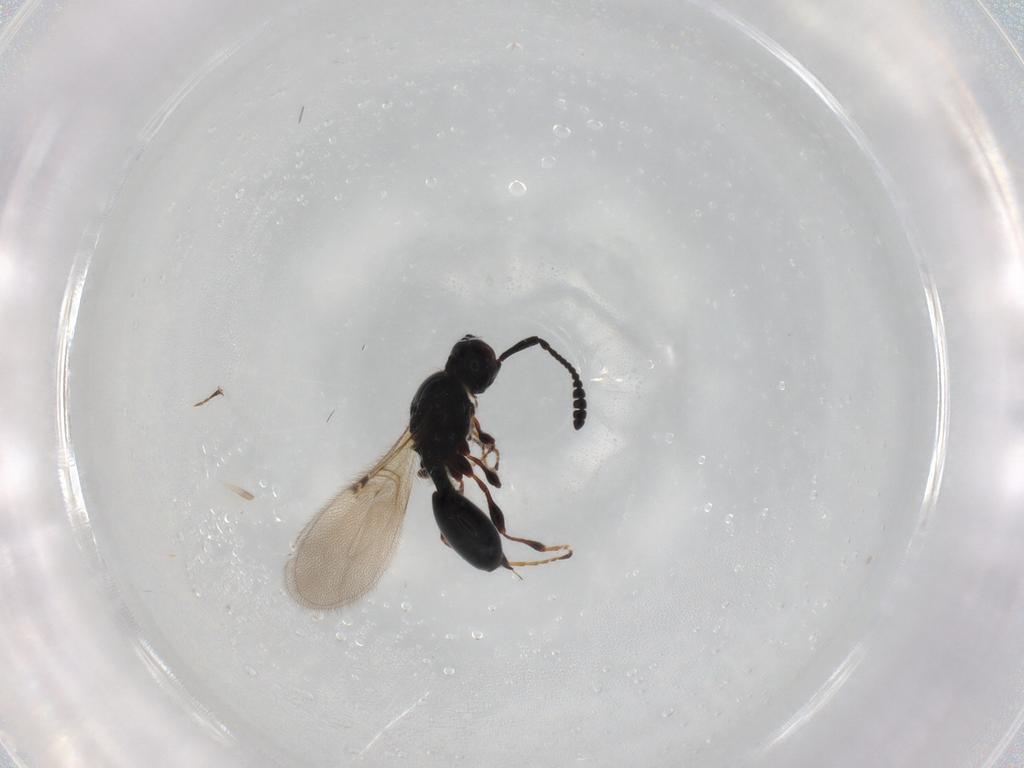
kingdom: Animalia
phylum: Arthropoda
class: Insecta
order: Hymenoptera
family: Diapriidae
